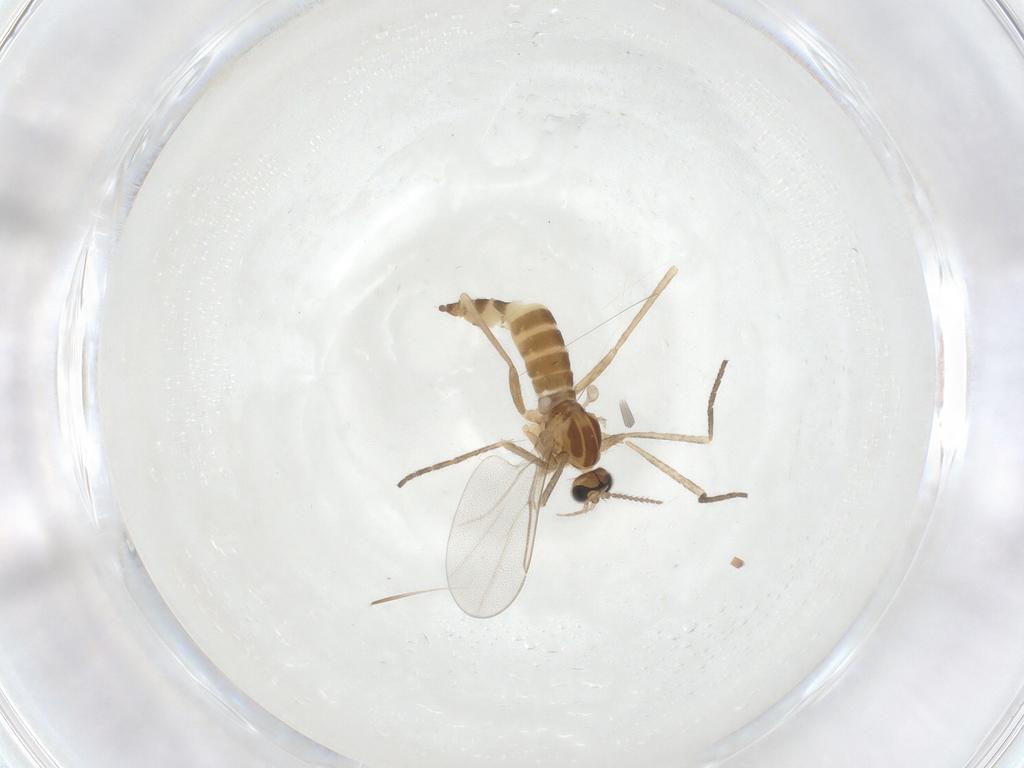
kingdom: Animalia
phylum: Arthropoda
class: Insecta
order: Diptera
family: Cecidomyiidae
